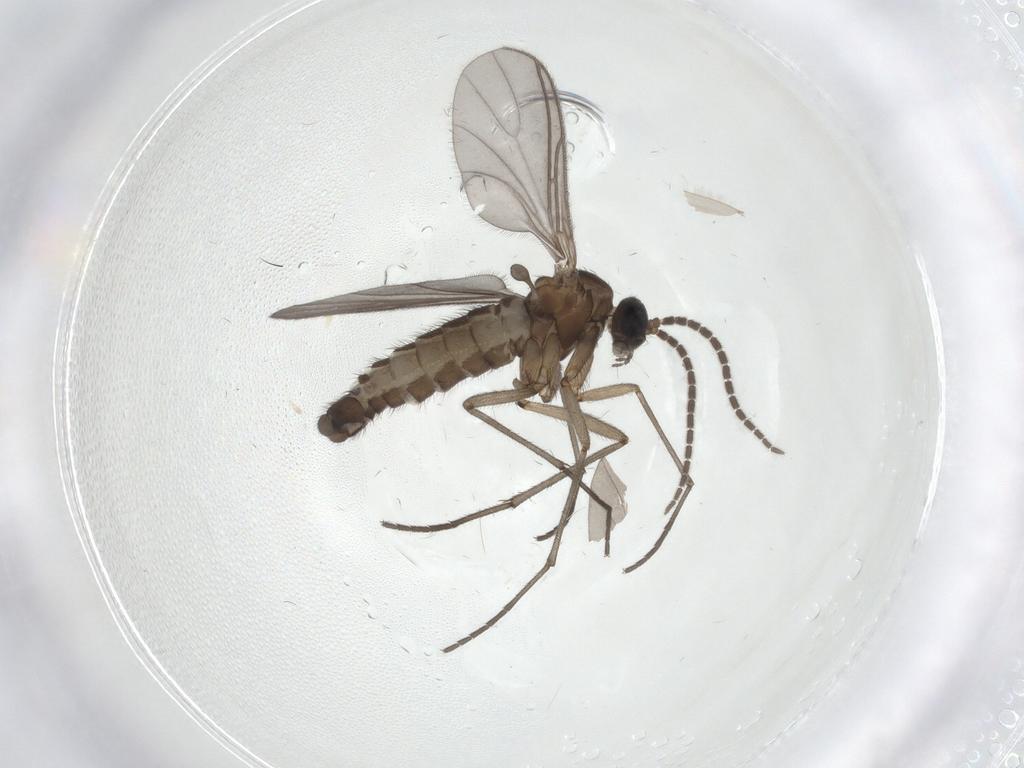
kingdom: Animalia
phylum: Arthropoda
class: Insecta
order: Diptera
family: Sciaridae
